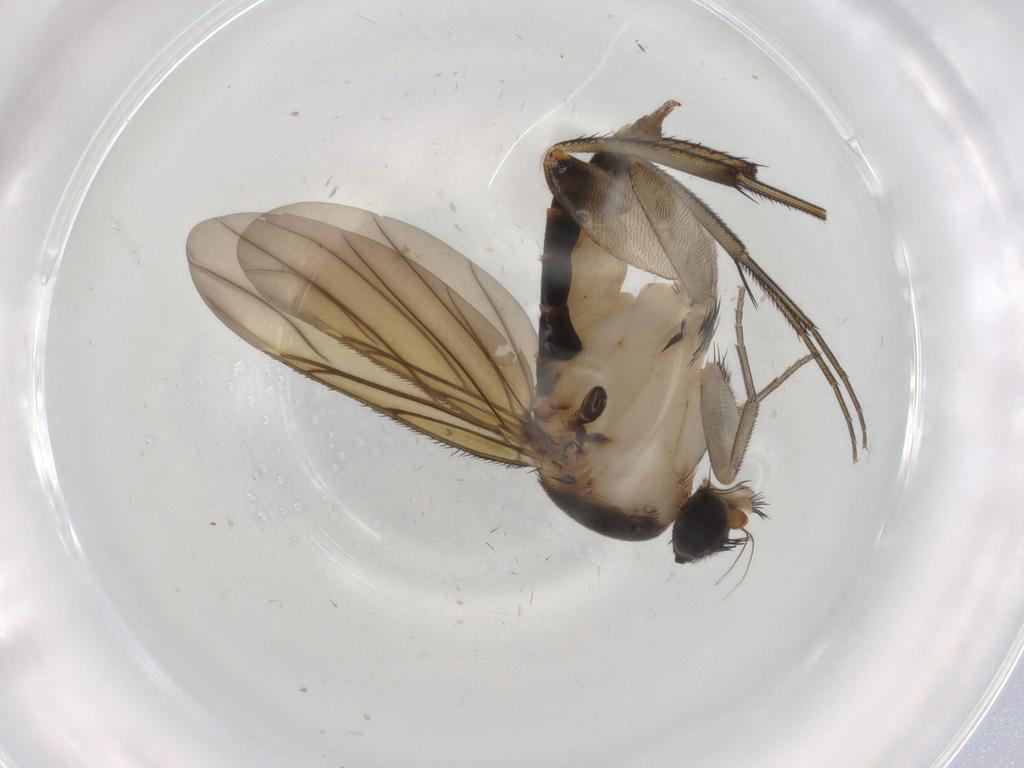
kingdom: Animalia
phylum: Arthropoda
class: Insecta
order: Diptera
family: Phoridae
